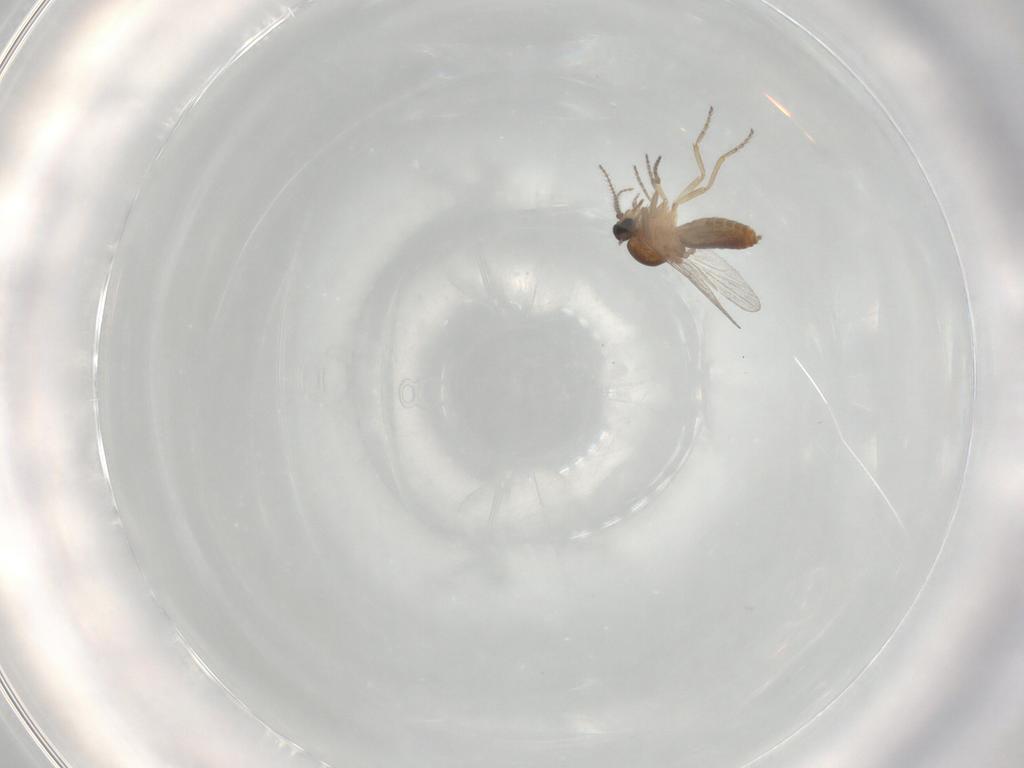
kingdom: Animalia
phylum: Arthropoda
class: Insecta
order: Diptera
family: Ceratopogonidae
